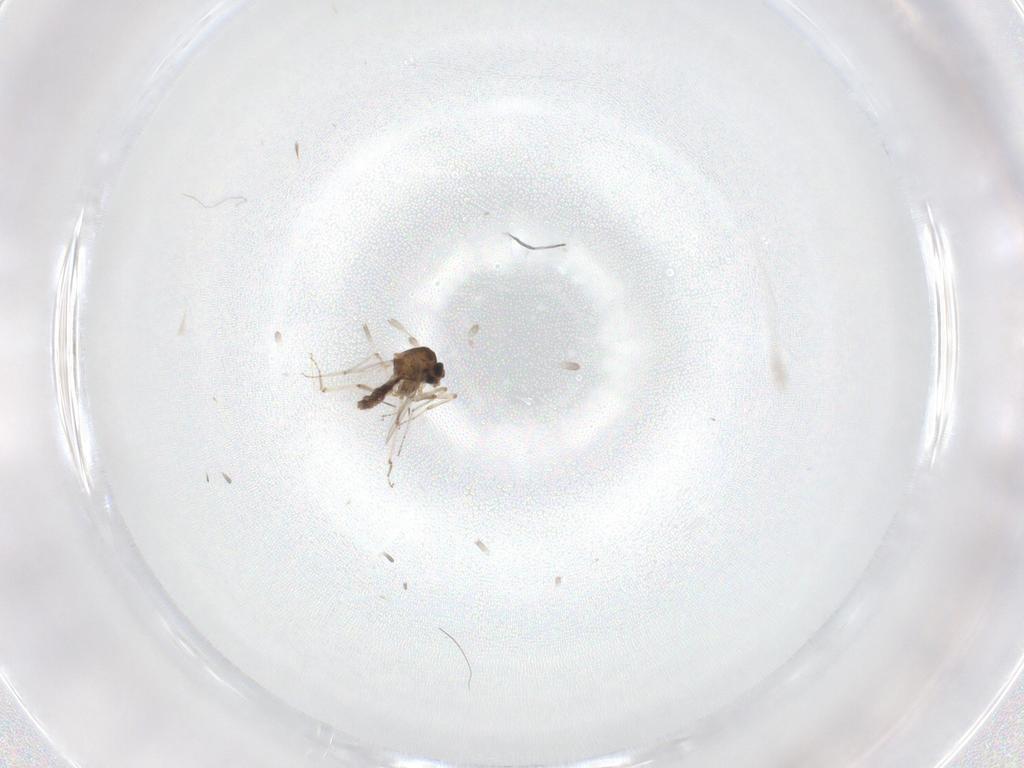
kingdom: Animalia
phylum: Arthropoda
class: Insecta
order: Diptera
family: Ceratopogonidae
